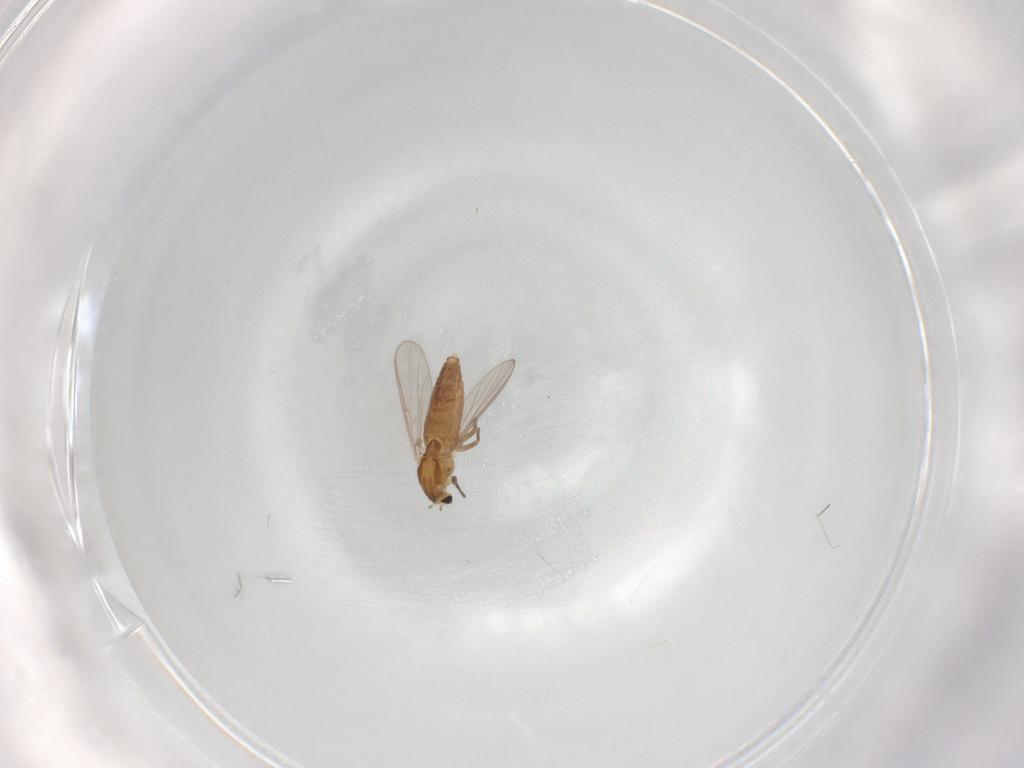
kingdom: Animalia
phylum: Arthropoda
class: Insecta
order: Diptera
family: Chironomidae
